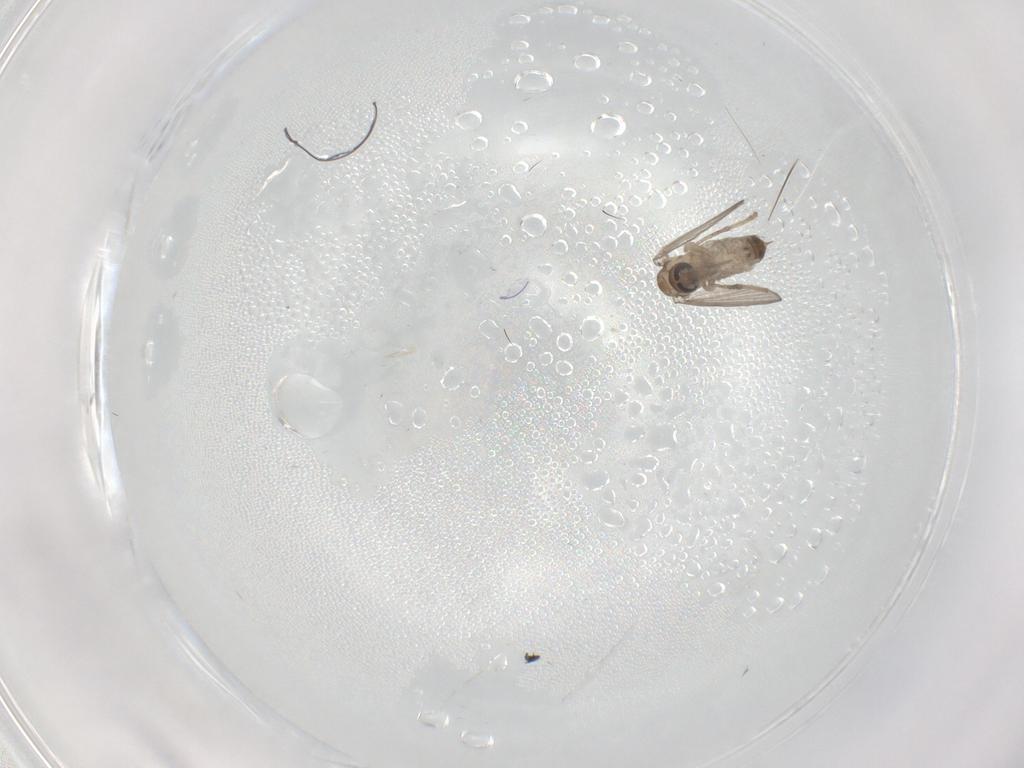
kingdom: Animalia
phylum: Arthropoda
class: Insecta
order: Diptera
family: Psychodidae
